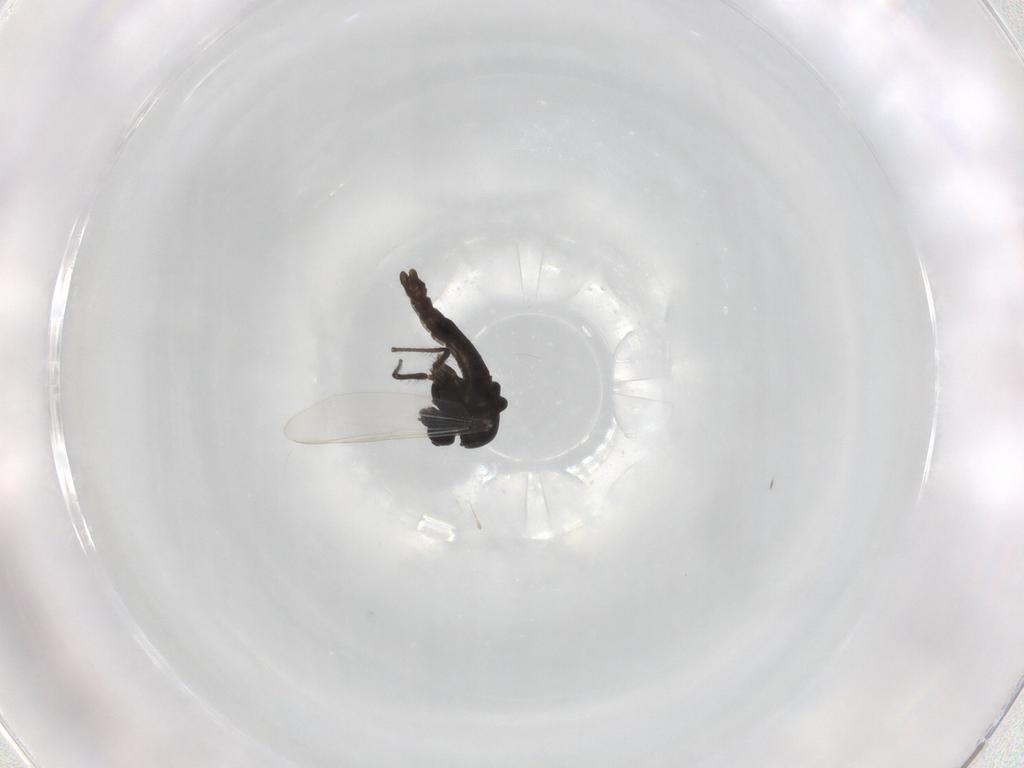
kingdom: Animalia
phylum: Arthropoda
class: Insecta
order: Diptera
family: Chironomidae
